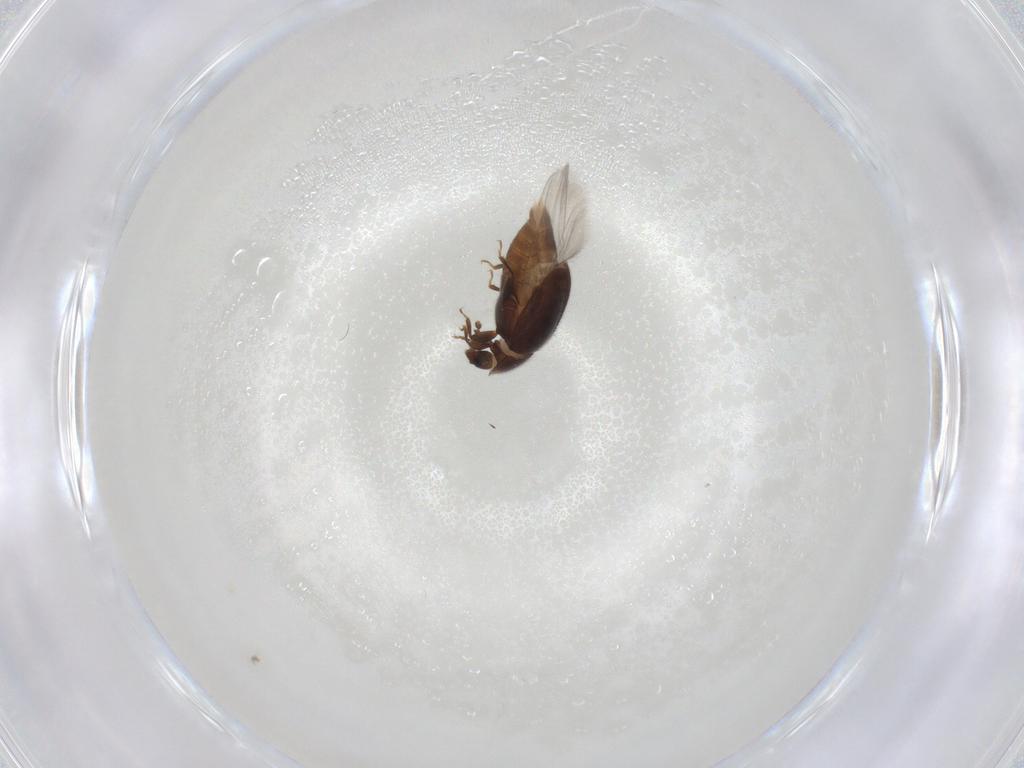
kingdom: Animalia
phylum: Arthropoda
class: Insecta
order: Coleoptera
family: Corylophidae
